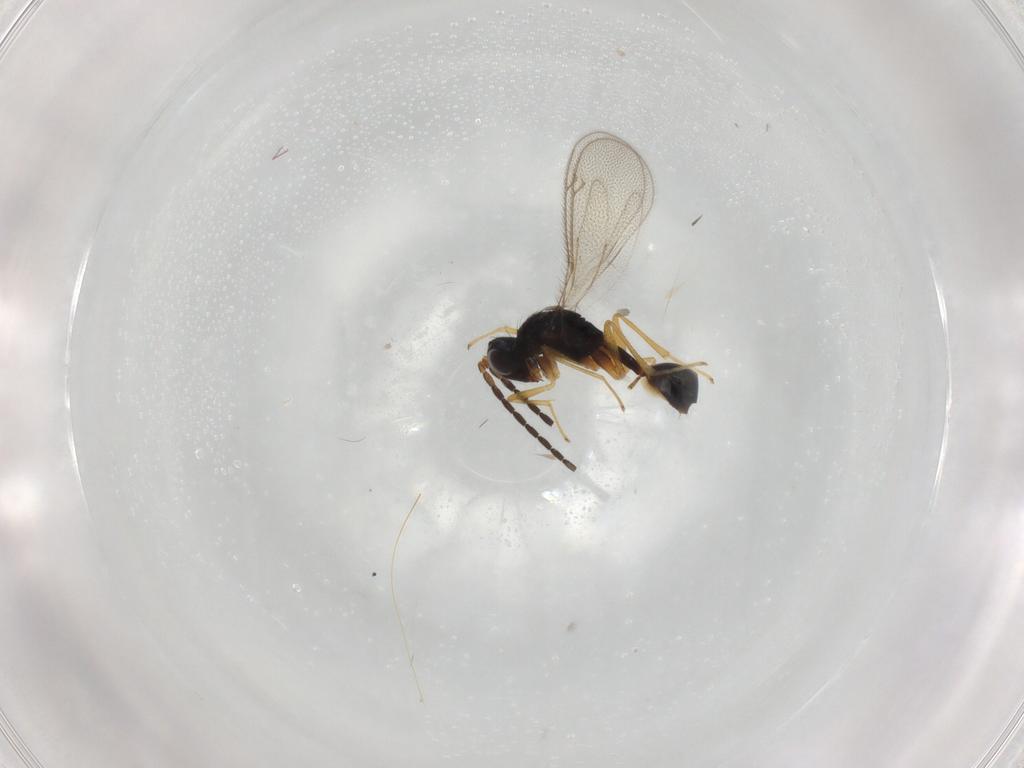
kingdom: Animalia
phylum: Arthropoda
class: Insecta
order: Hymenoptera
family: Diparidae
